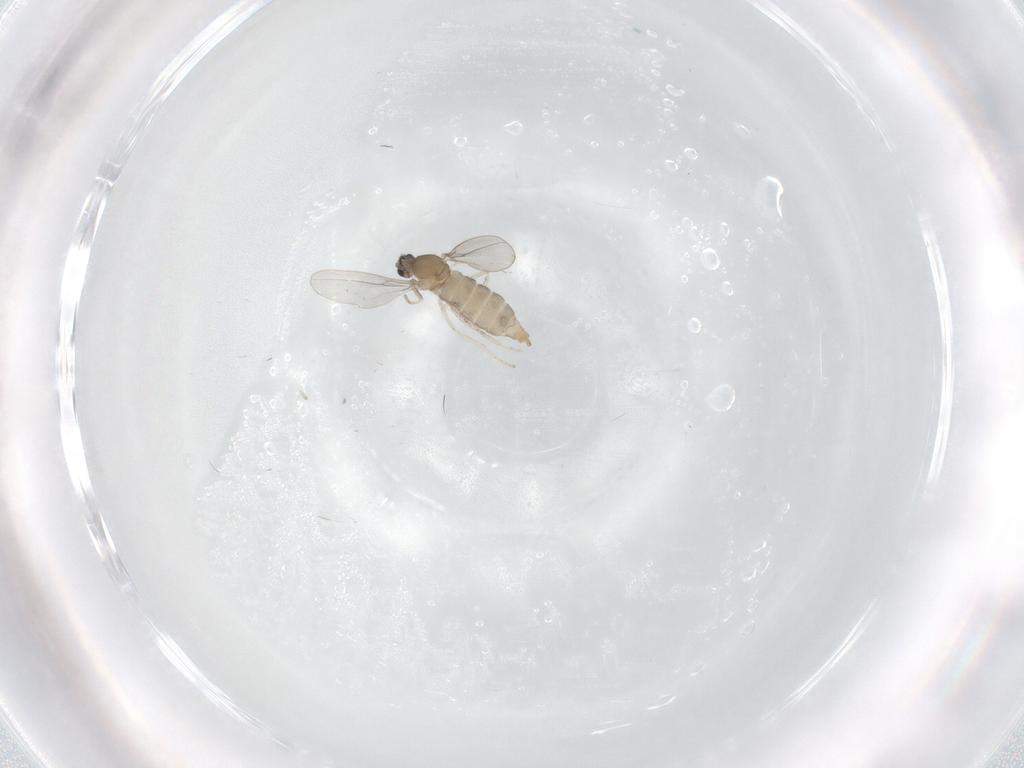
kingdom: Animalia
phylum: Arthropoda
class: Insecta
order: Diptera
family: Cecidomyiidae
